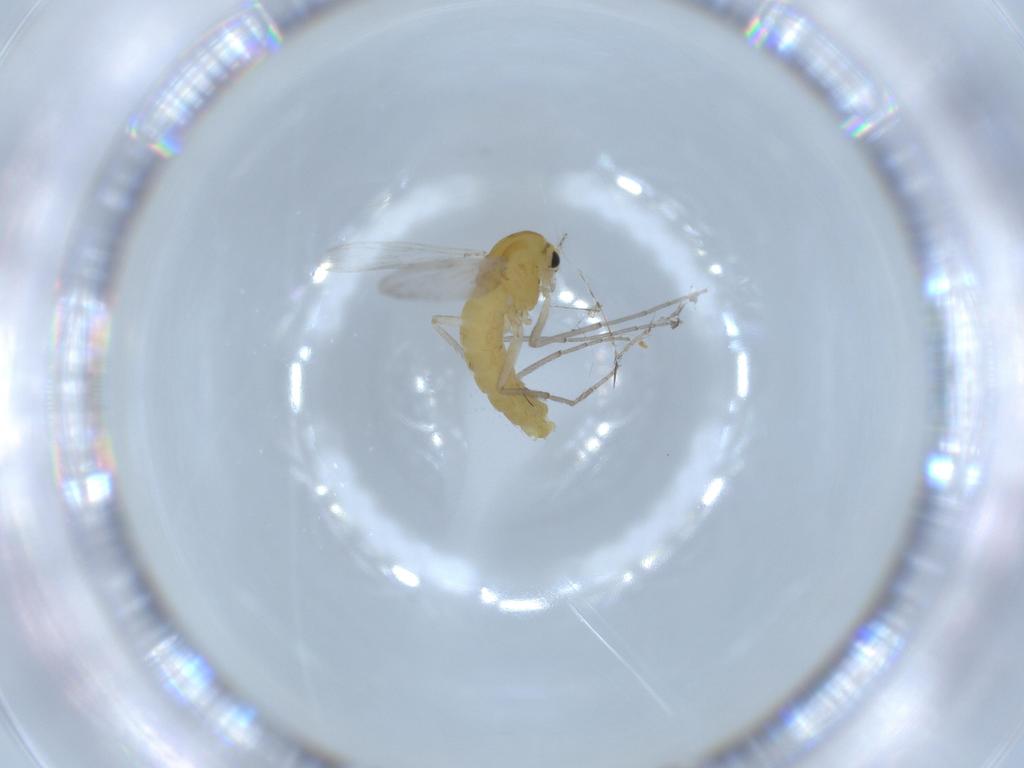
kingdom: Animalia
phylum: Arthropoda
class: Insecta
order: Diptera
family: Chironomidae
